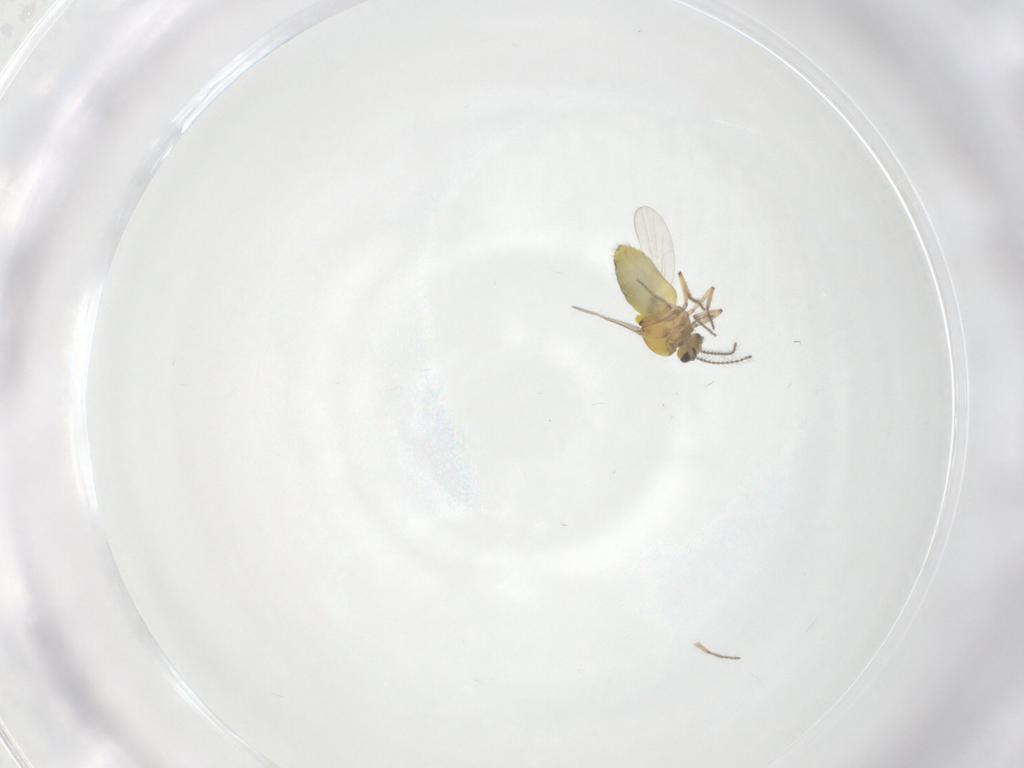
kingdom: Animalia
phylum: Arthropoda
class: Insecta
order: Diptera
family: Ceratopogonidae
